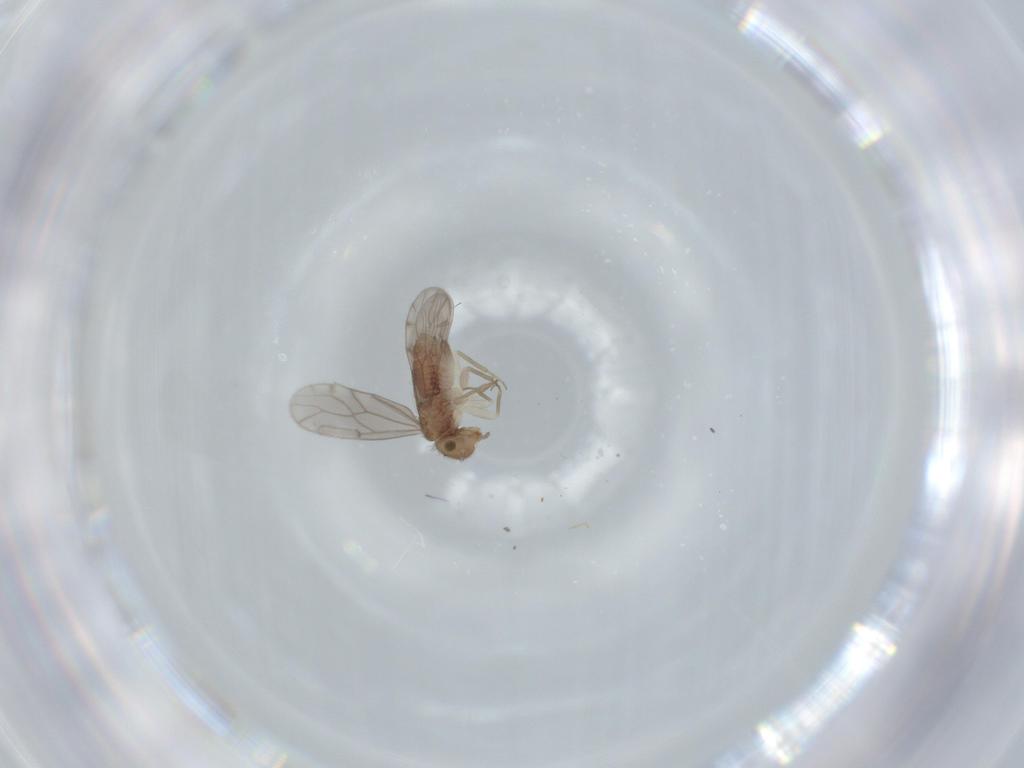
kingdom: Animalia
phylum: Arthropoda
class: Insecta
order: Psocodea
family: Ectopsocidae
